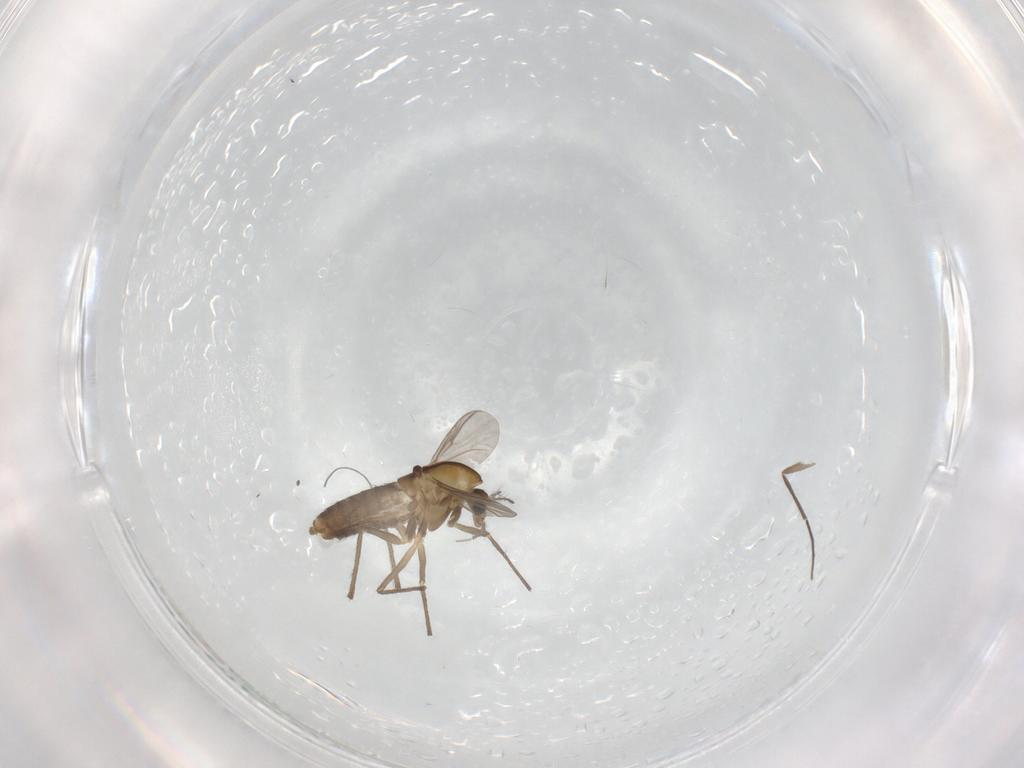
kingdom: Animalia
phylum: Arthropoda
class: Insecta
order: Diptera
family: Chironomidae
